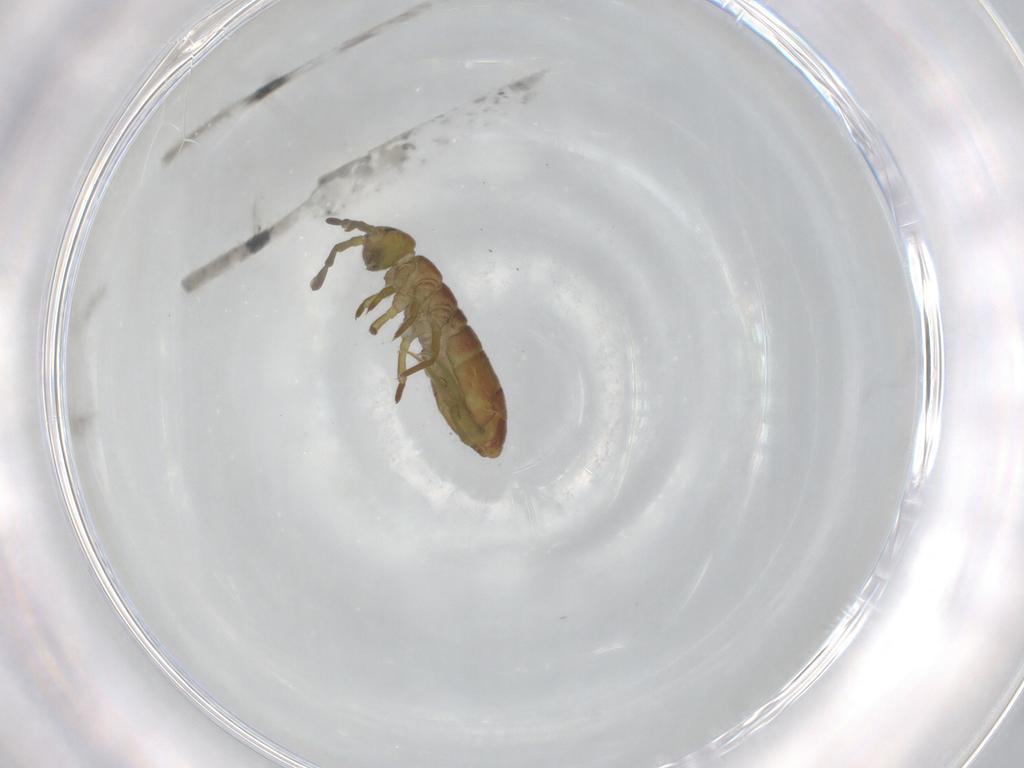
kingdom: Animalia
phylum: Arthropoda
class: Collembola
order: Entomobryomorpha
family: Isotomidae
